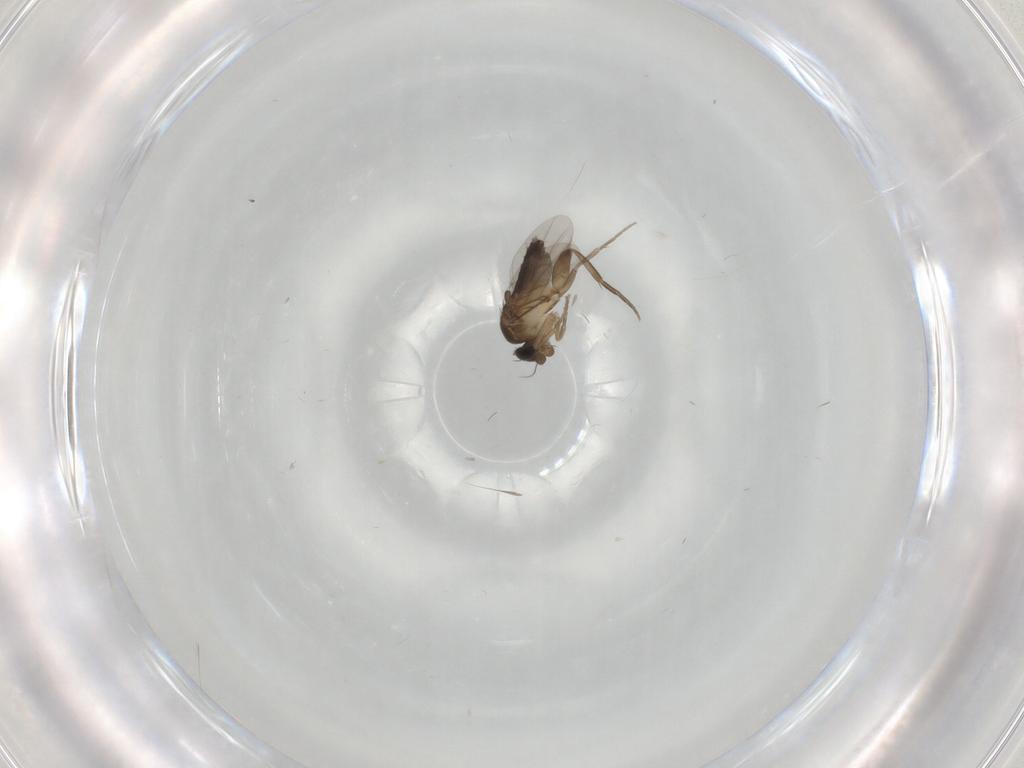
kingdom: Animalia
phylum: Arthropoda
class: Insecta
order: Diptera
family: Phoridae
